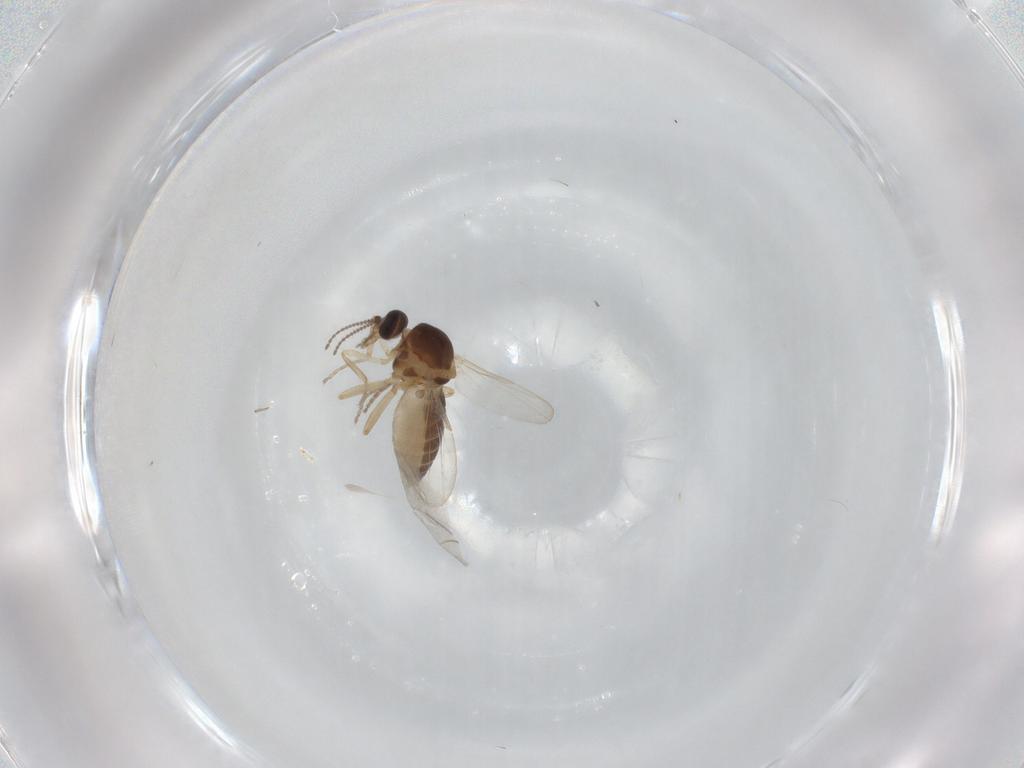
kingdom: Animalia
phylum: Arthropoda
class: Insecta
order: Diptera
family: Ceratopogonidae
